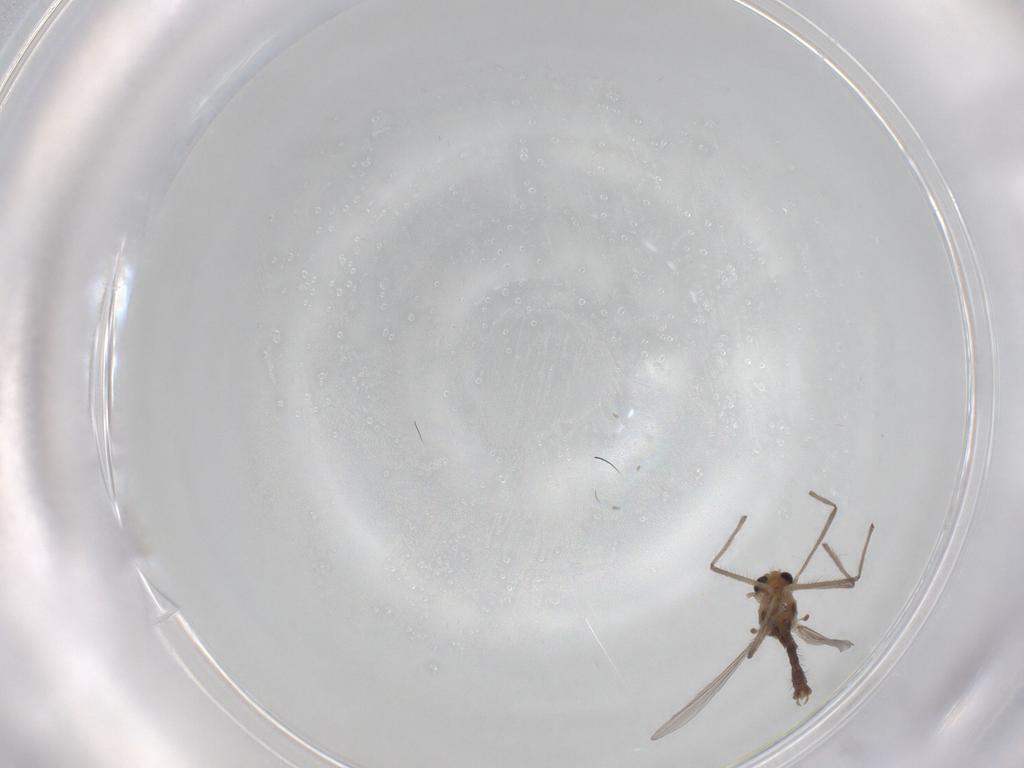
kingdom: Animalia
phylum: Arthropoda
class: Insecta
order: Diptera
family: Chironomidae
